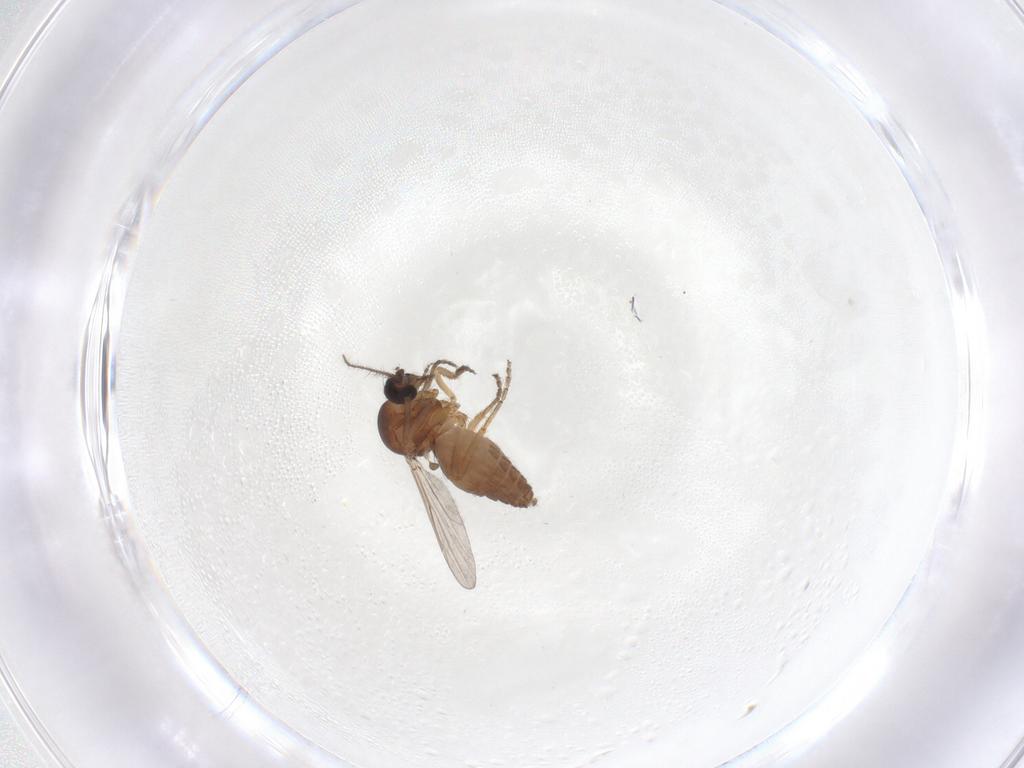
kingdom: Animalia
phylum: Arthropoda
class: Insecta
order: Diptera
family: Ceratopogonidae
